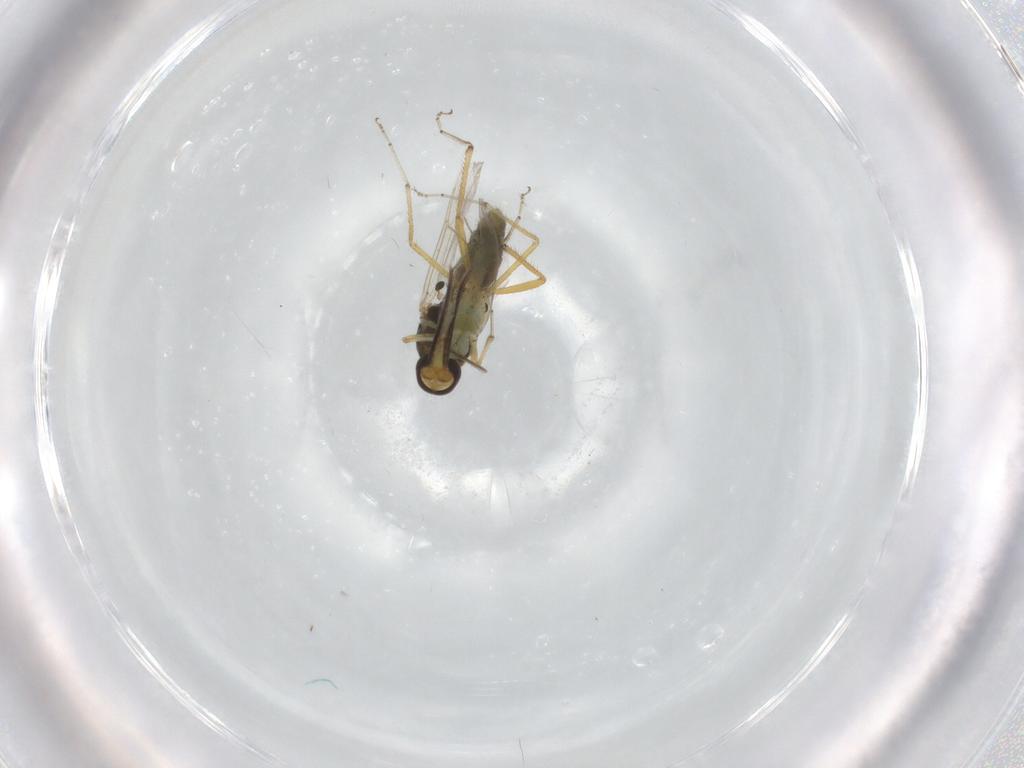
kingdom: Animalia
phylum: Arthropoda
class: Insecta
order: Diptera
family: Ceratopogonidae
